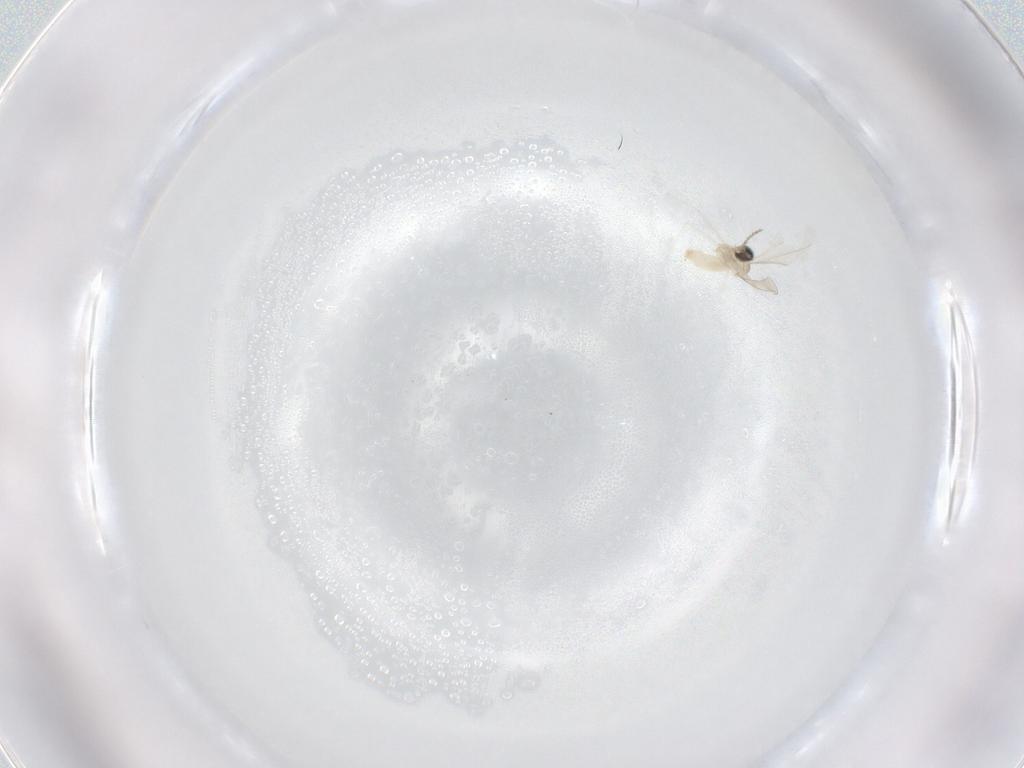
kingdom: Animalia
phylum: Arthropoda
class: Insecta
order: Diptera
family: Cecidomyiidae
